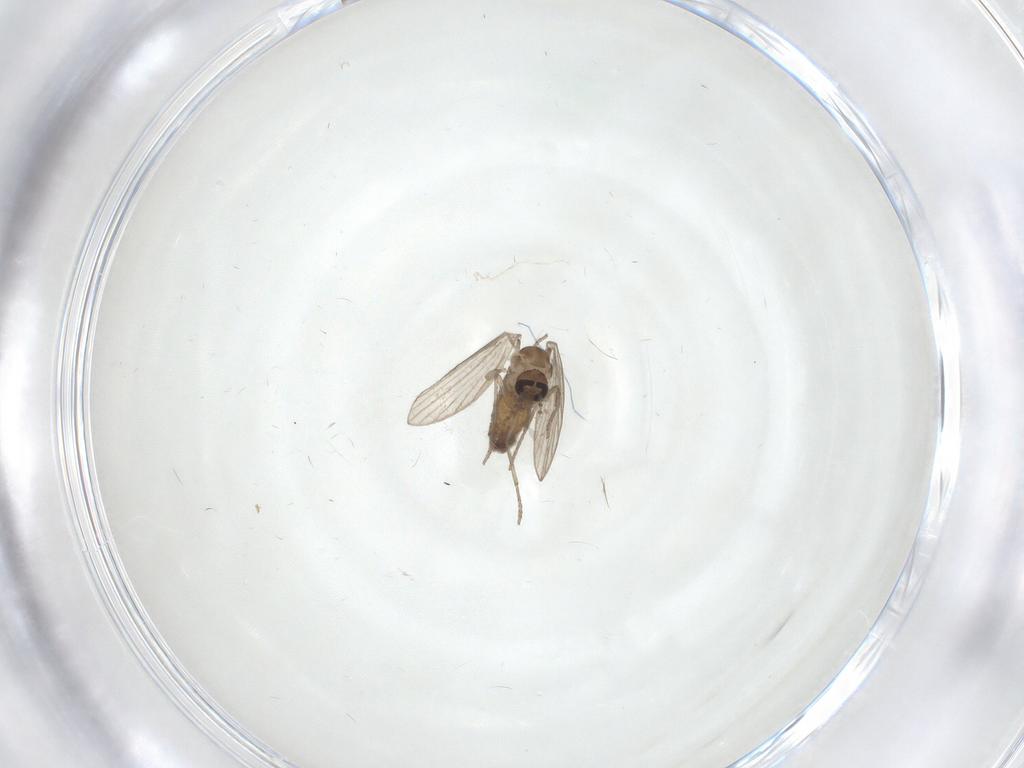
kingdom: Animalia
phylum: Arthropoda
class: Insecta
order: Diptera
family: Psychodidae
